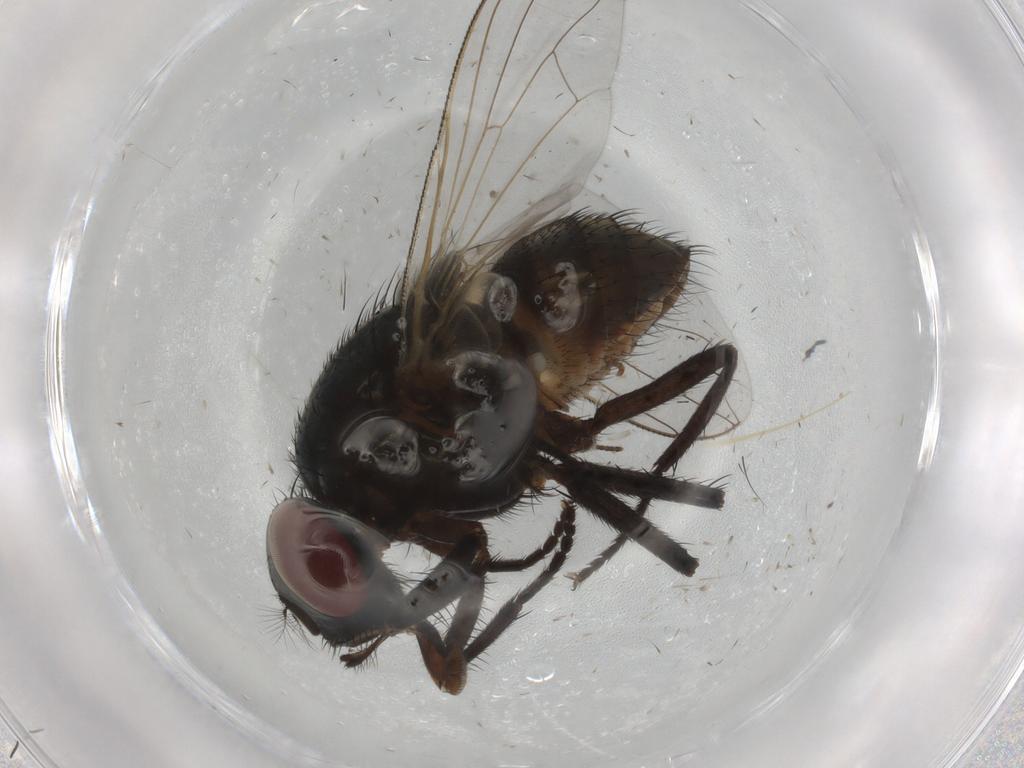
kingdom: Animalia
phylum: Arthropoda
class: Insecta
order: Diptera
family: Muscidae
